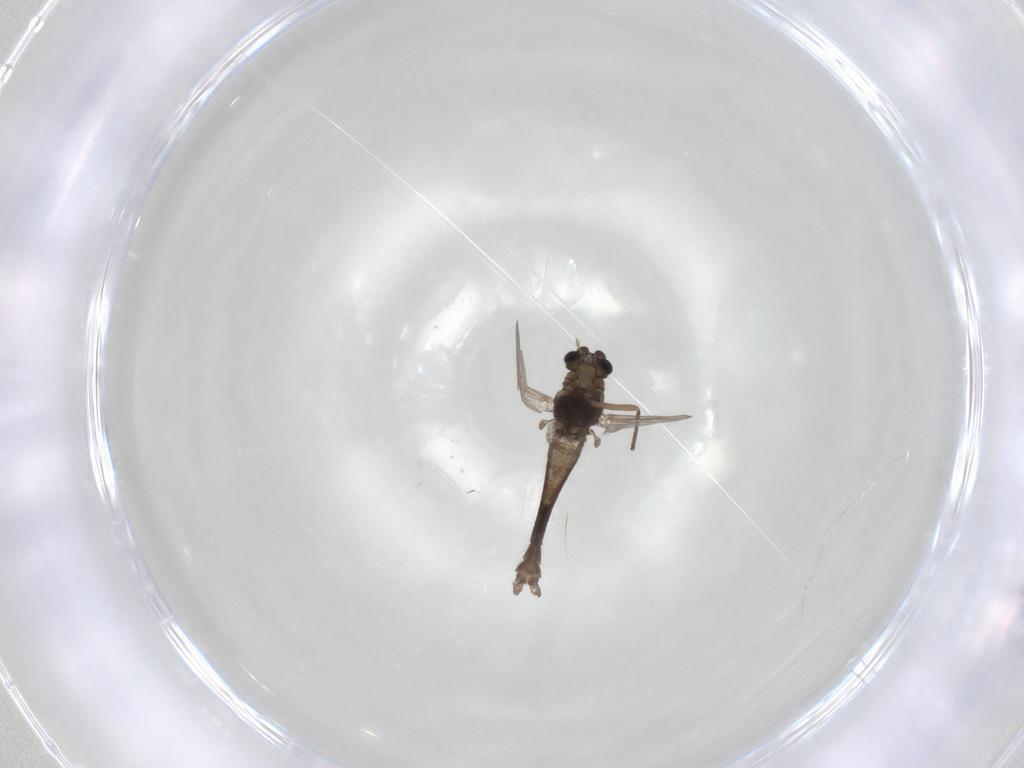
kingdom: Animalia
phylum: Arthropoda
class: Insecta
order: Diptera
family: Chironomidae
